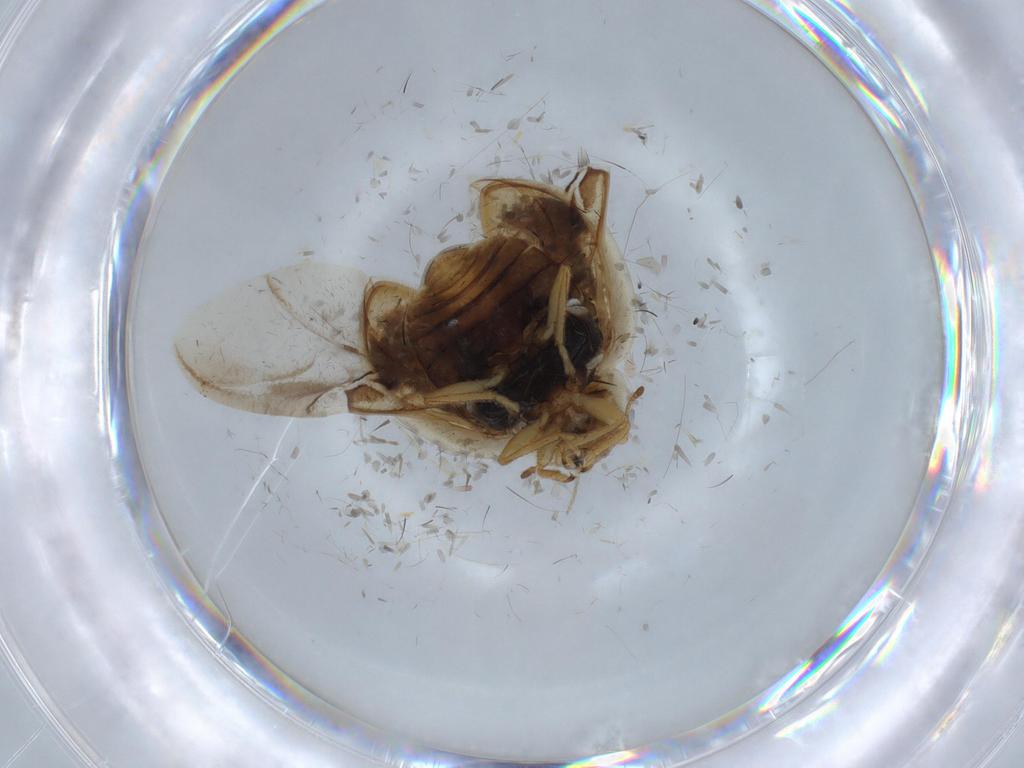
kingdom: Animalia
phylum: Arthropoda
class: Insecta
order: Coleoptera
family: Coccinellidae
